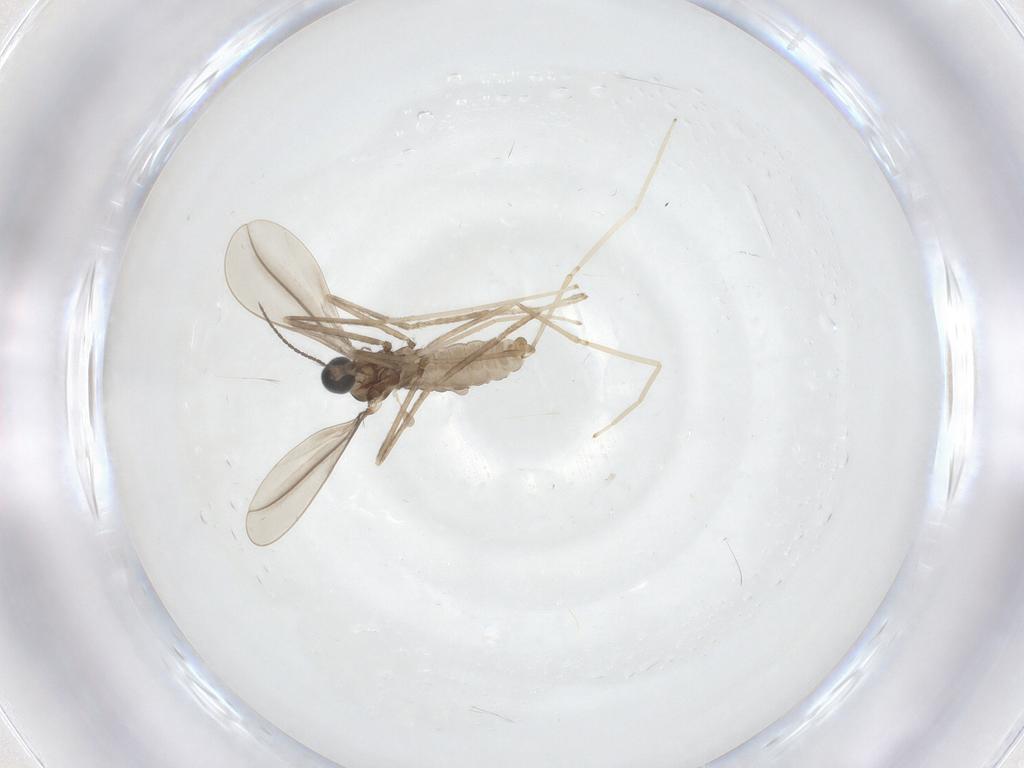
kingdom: Animalia
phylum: Arthropoda
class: Insecta
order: Diptera
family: Cecidomyiidae
